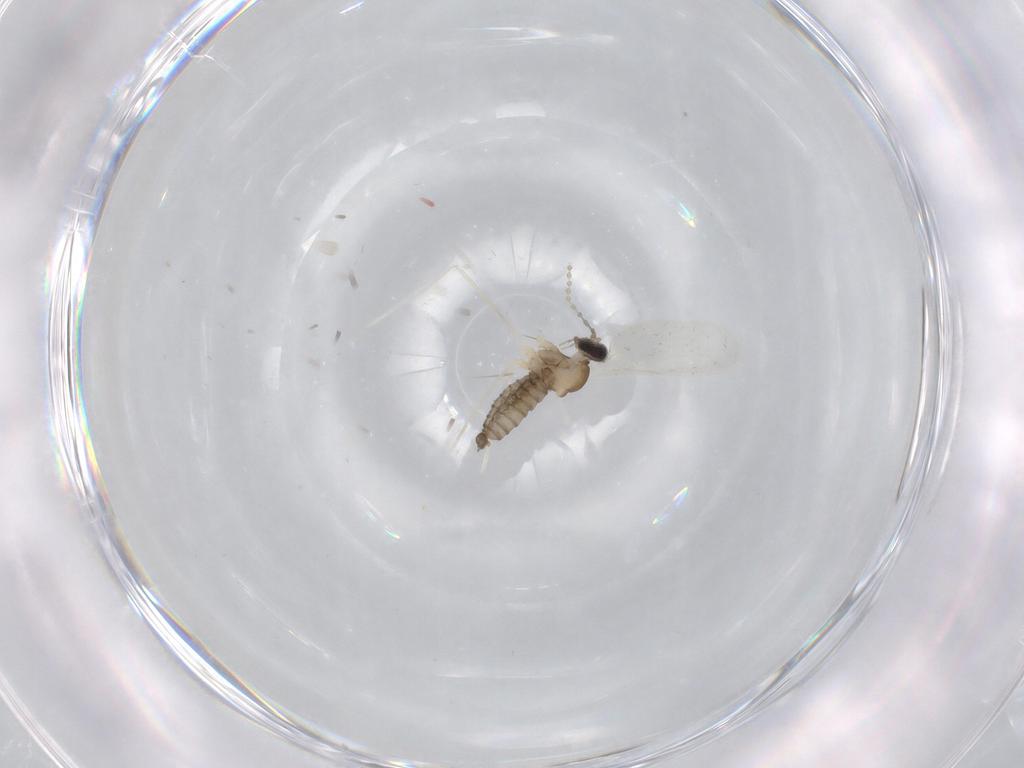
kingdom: Animalia
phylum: Arthropoda
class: Insecta
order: Diptera
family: Cecidomyiidae
